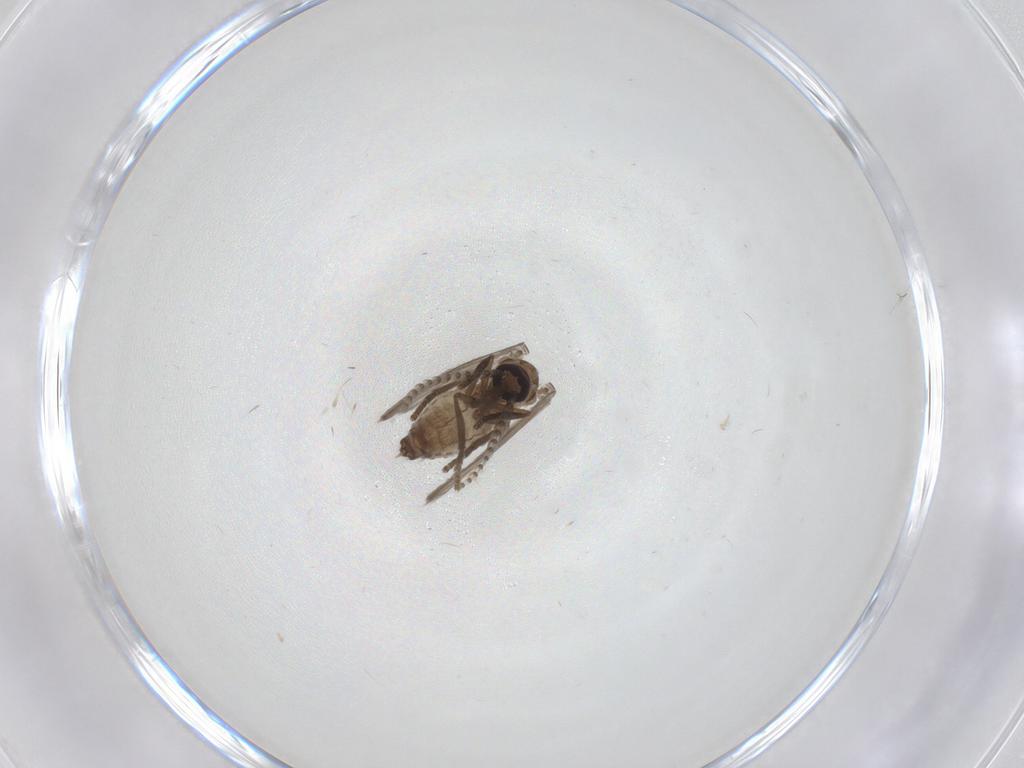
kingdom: Animalia
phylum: Arthropoda
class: Insecta
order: Diptera
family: Psychodidae
